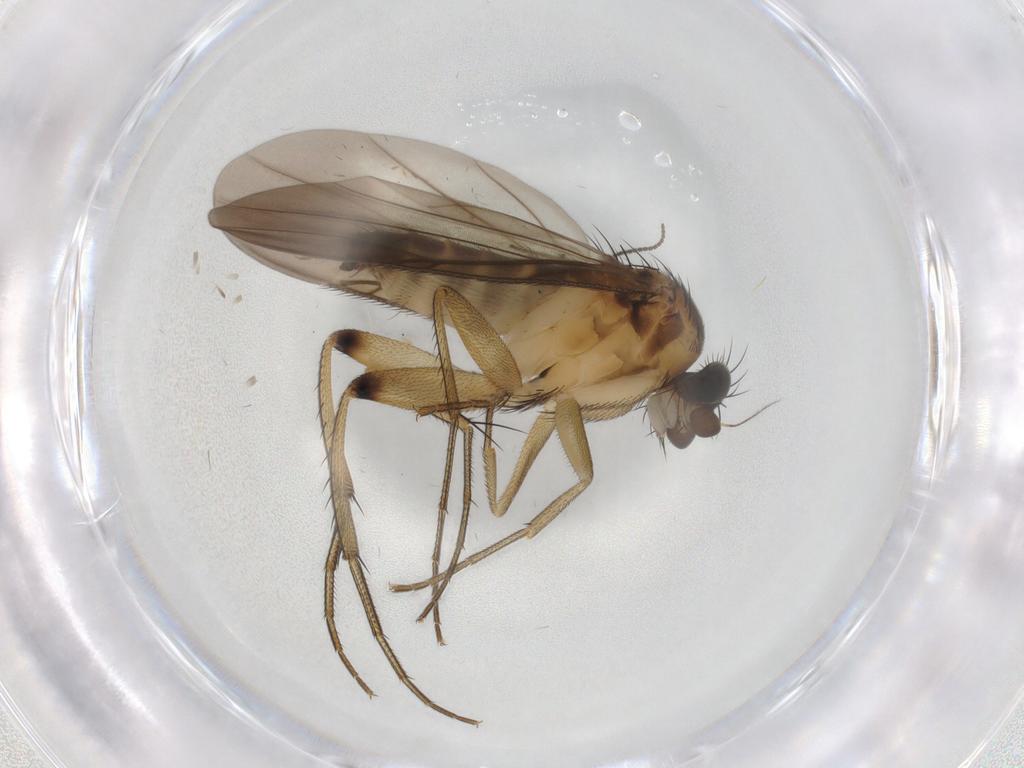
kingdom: Animalia
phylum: Arthropoda
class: Insecta
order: Diptera
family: Phoridae
